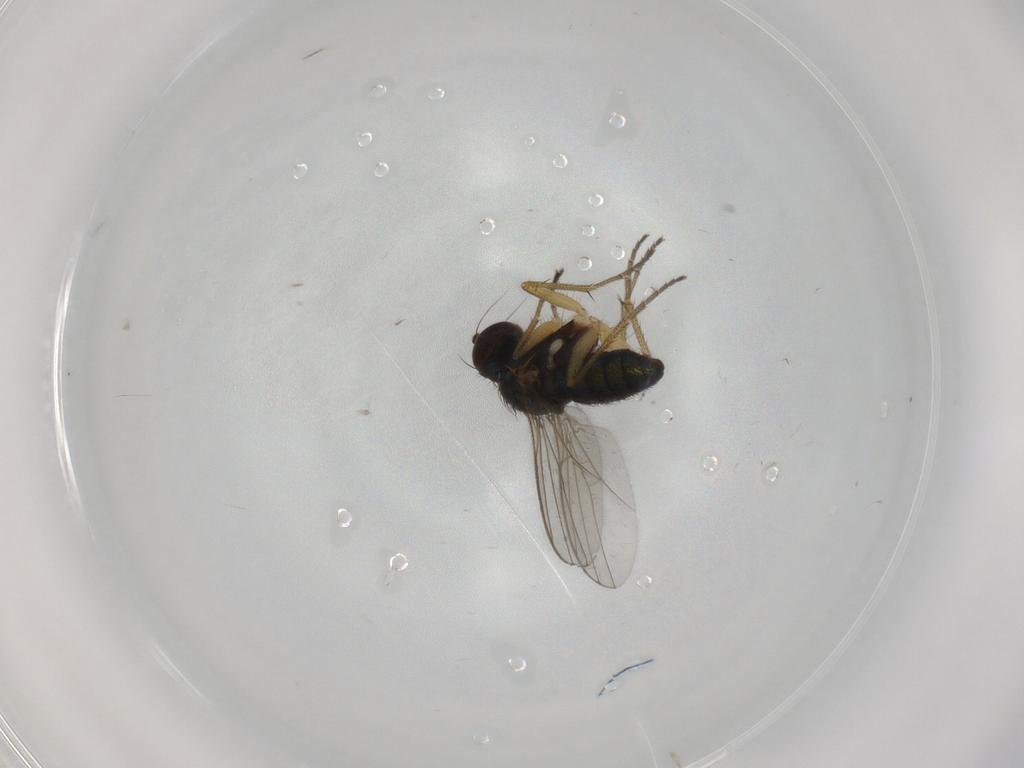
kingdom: Animalia
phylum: Arthropoda
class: Insecta
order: Diptera
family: Dolichopodidae
